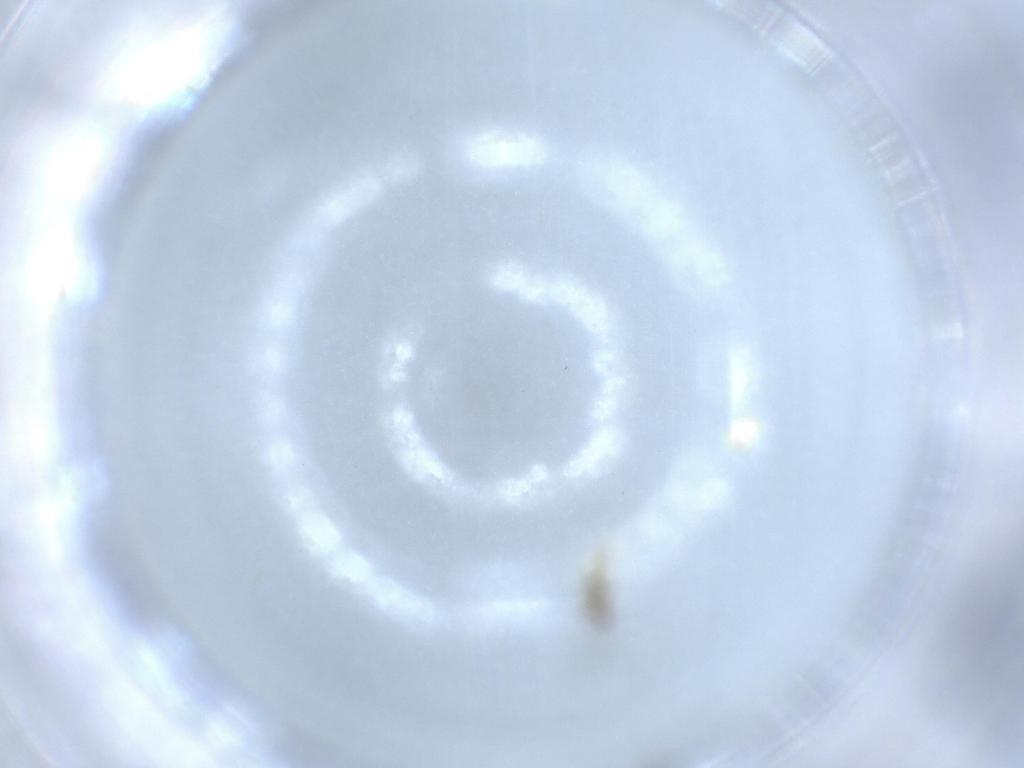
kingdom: Animalia
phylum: Arthropoda
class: Insecta
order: Diptera
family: Cecidomyiidae
